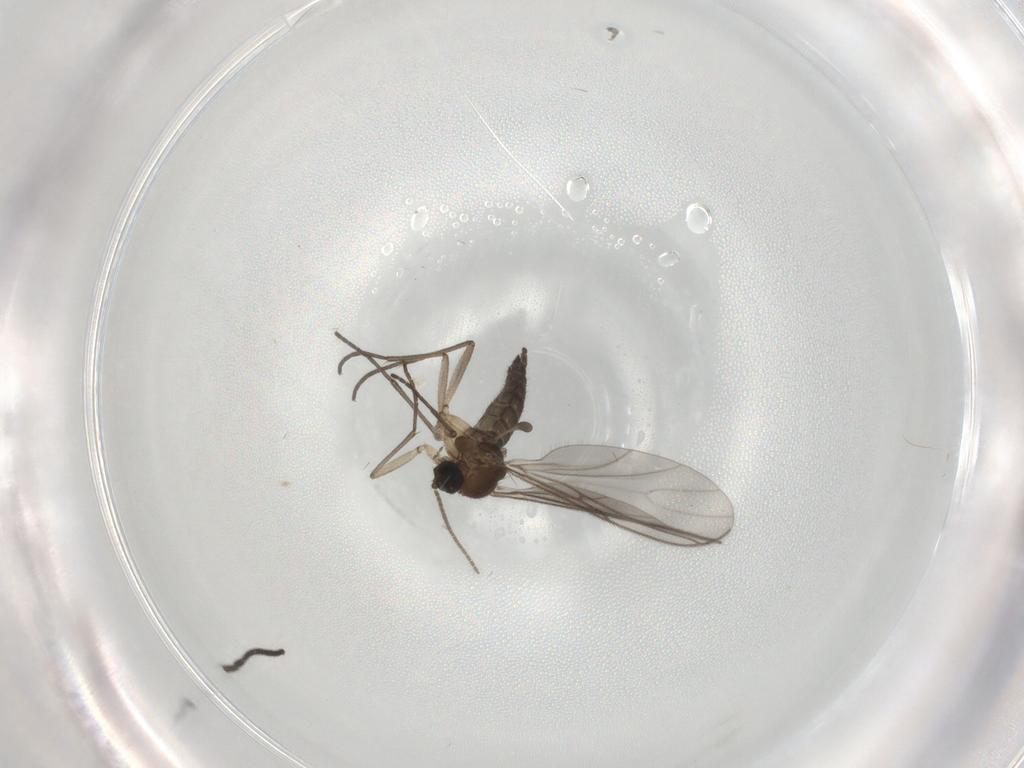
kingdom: Animalia
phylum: Arthropoda
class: Insecta
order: Diptera
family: Sciaridae
